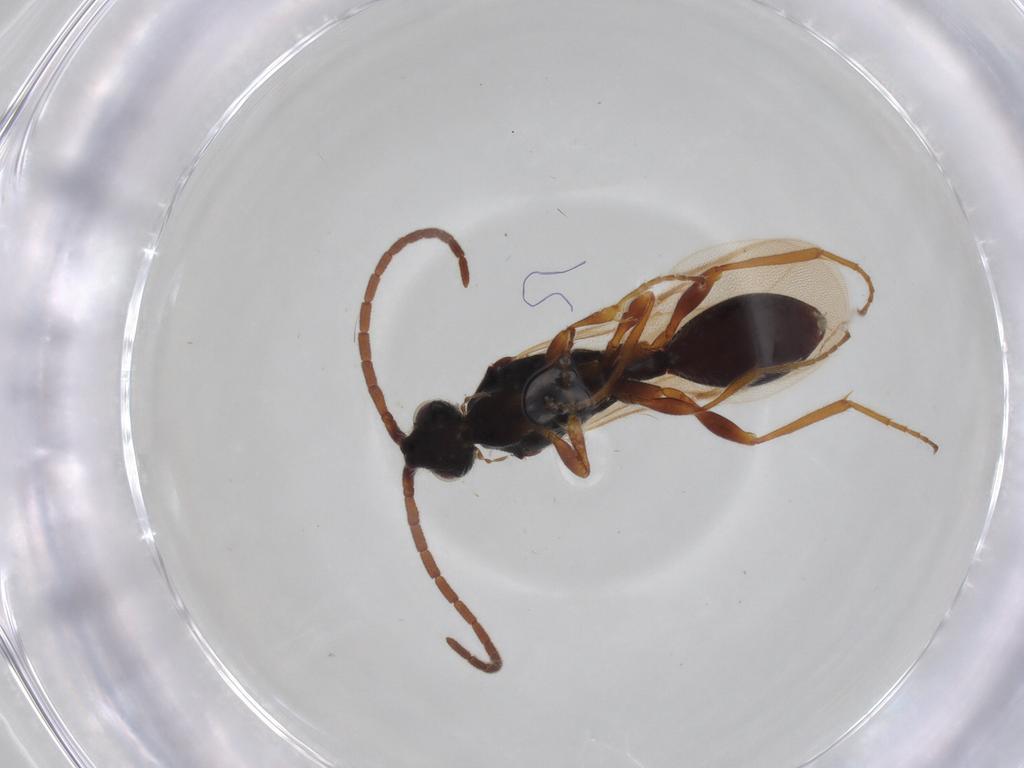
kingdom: Animalia
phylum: Arthropoda
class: Insecta
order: Hymenoptera
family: Diapriidae
